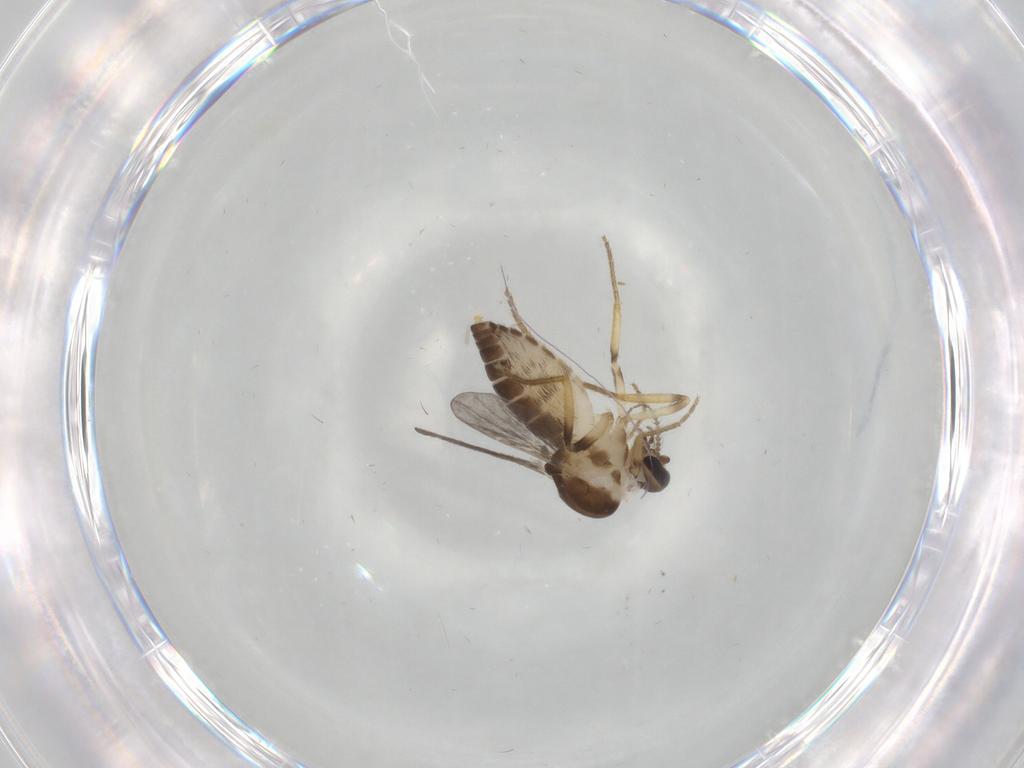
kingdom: Animalia
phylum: Arthropoda
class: Insecta
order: Diptera
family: Ceratopogonidae
